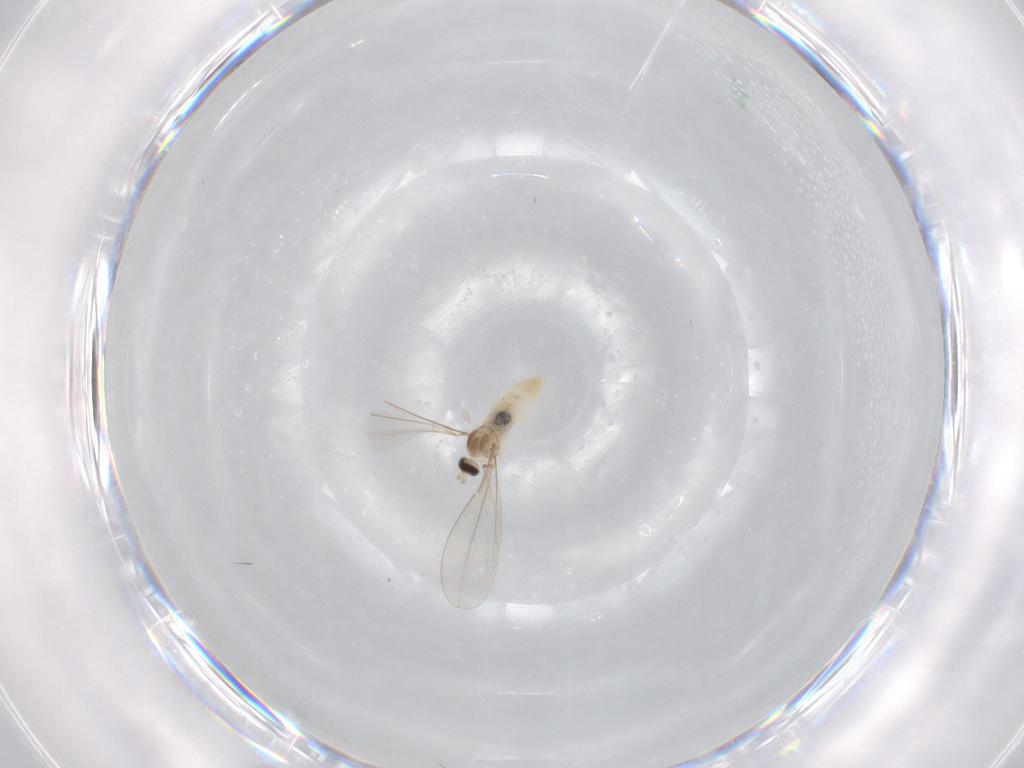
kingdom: Animalia
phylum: Arthropoda
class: Insecta
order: Diptera
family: Cecidomyiidae
